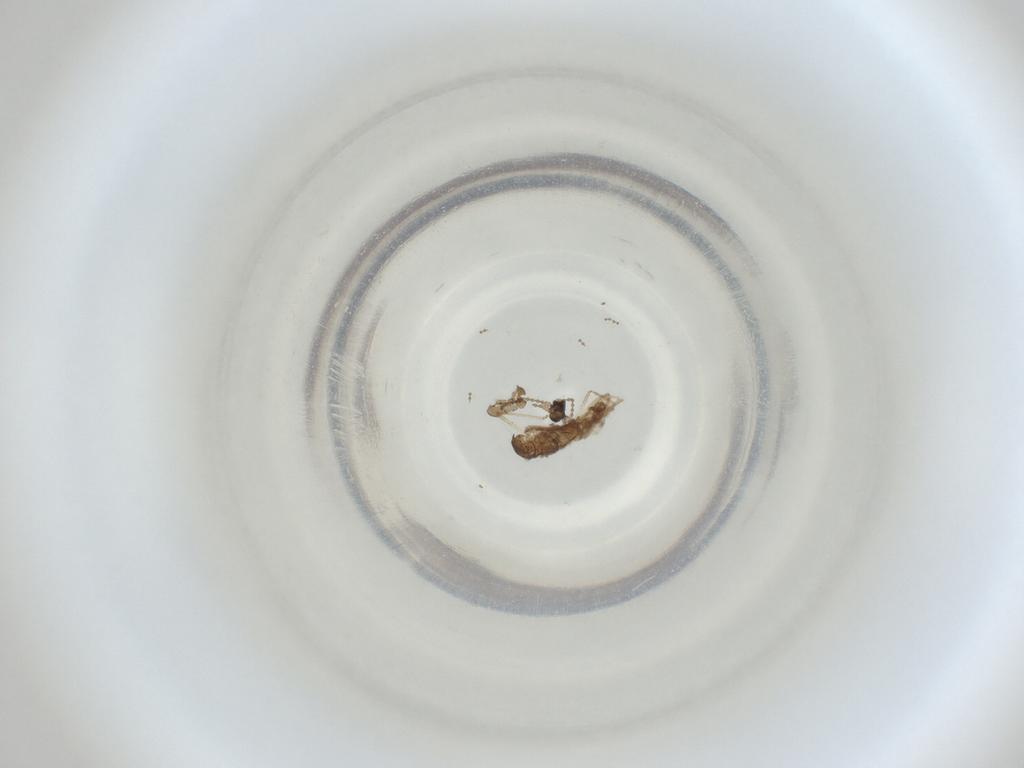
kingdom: Animalia
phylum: Arthropoda
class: Insecta
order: Diptera
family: Cecidomyiidae
